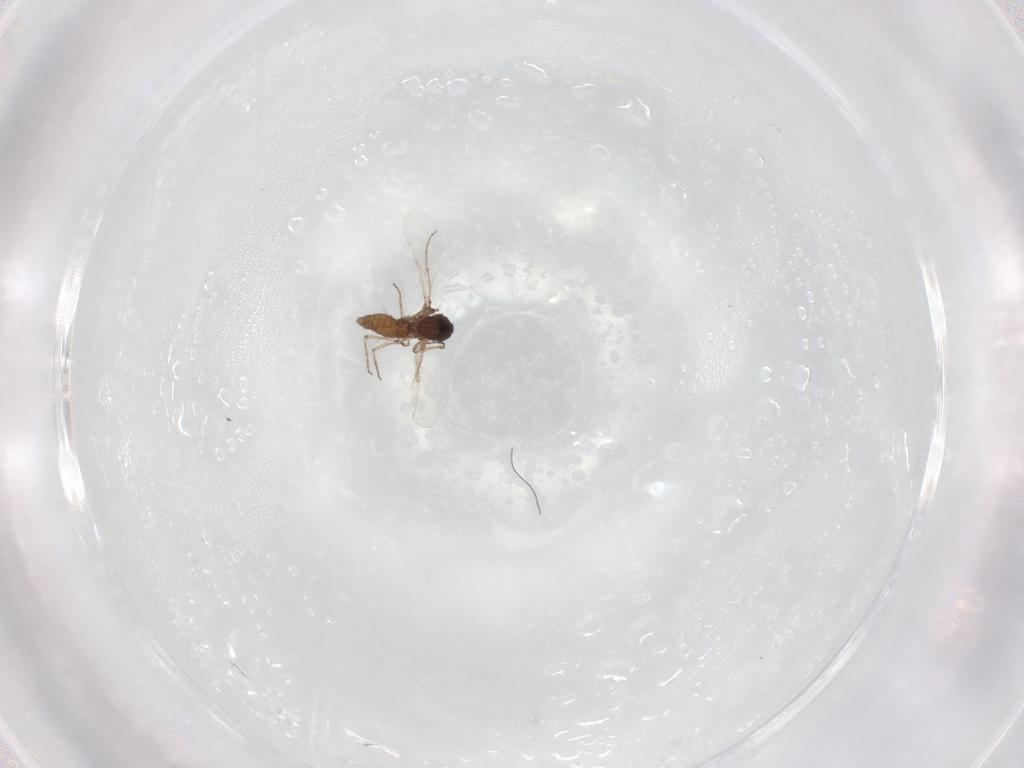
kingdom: Animalia
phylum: Arthropoda
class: Insecta
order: Diptera
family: Ceratopogonidae
